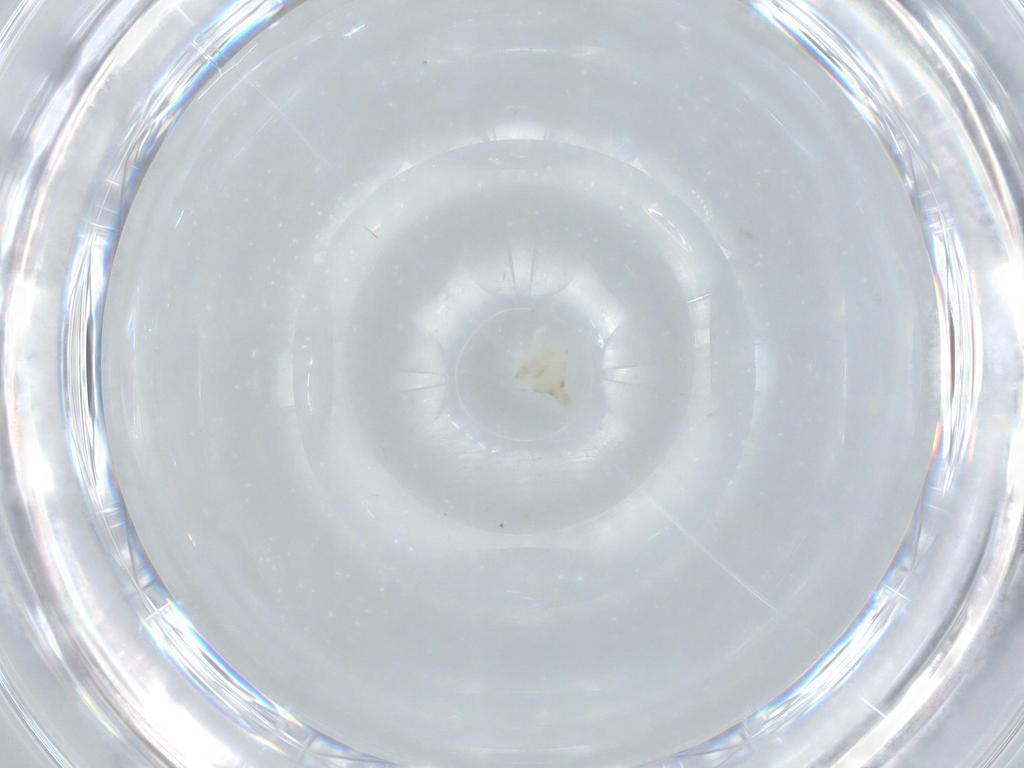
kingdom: Animalia
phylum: Arthropoda
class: Insecta
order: Diptera
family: Cecidomyiidae
